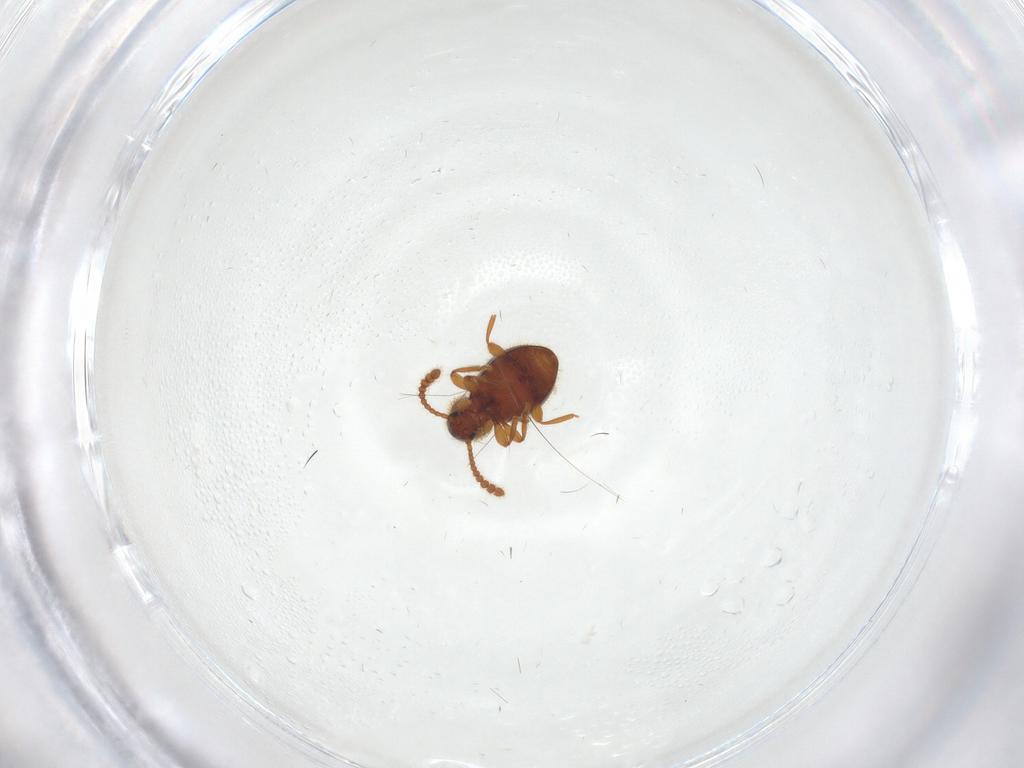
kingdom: Animalia
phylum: Arthropoda
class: Insecta
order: Coleoptera
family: Staphylinidae
